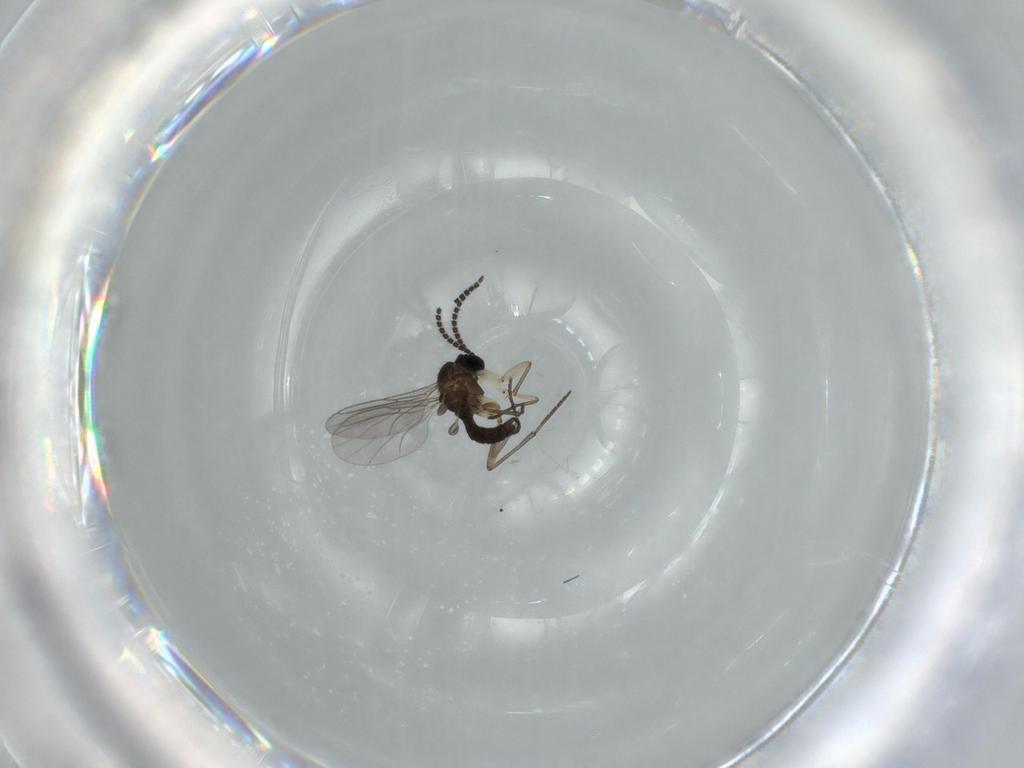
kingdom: Animalia
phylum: Arthropoda
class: Insecta
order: Diptera
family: Sciaridae
